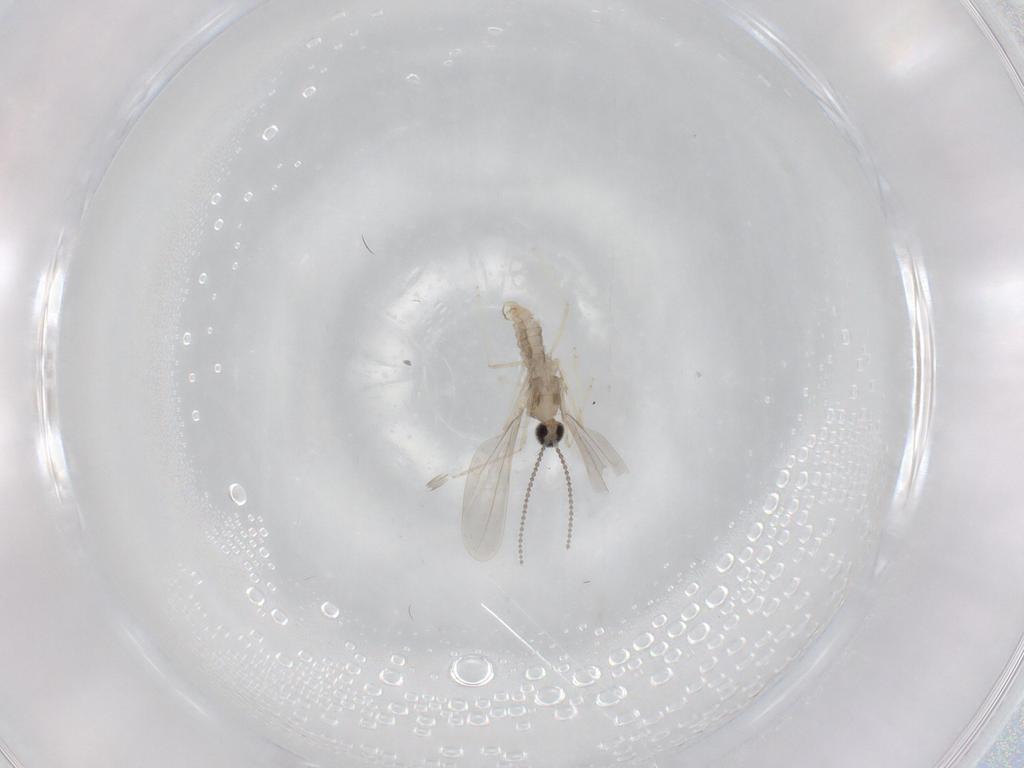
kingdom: Animalia
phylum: Arthropoda
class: Insecta
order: Diptera
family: Cecidomyiidae
